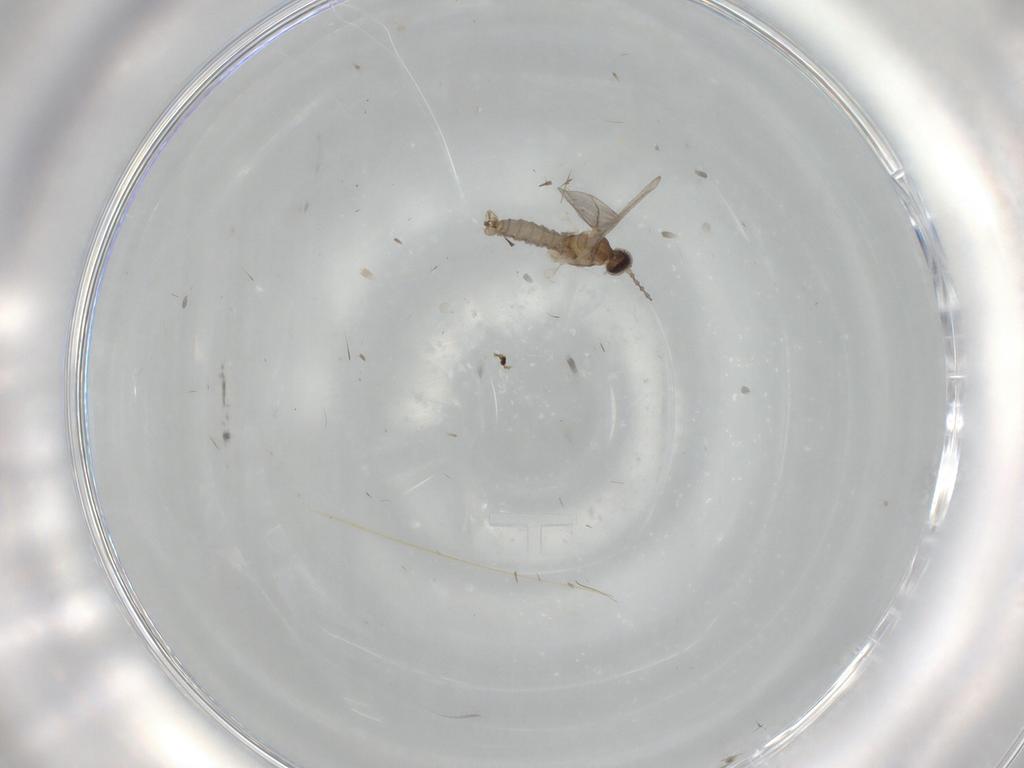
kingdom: Animalia
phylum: Arthropoda
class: Insecta
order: Diptera
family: Cecidomyiidae
